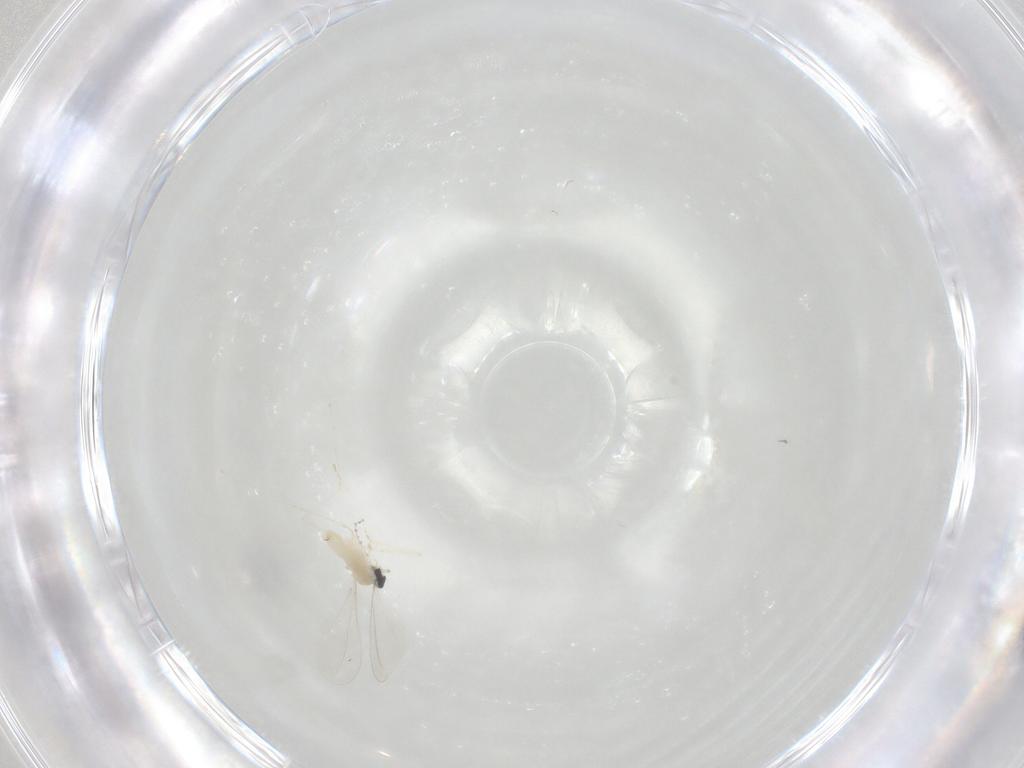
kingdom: Animalia
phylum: Arthropoda
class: Insecta
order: Diptera
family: Cecidomyiidae
